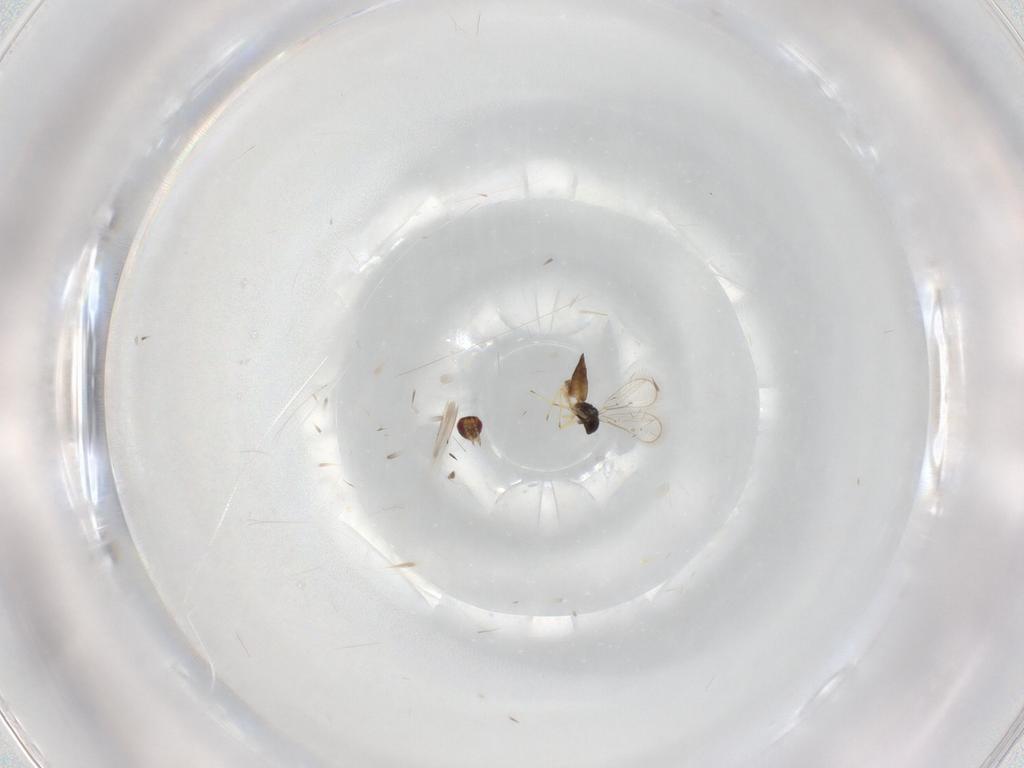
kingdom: Animalia
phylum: Arthropoda
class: Insecta
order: Hymenoptera
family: Eulophidae
